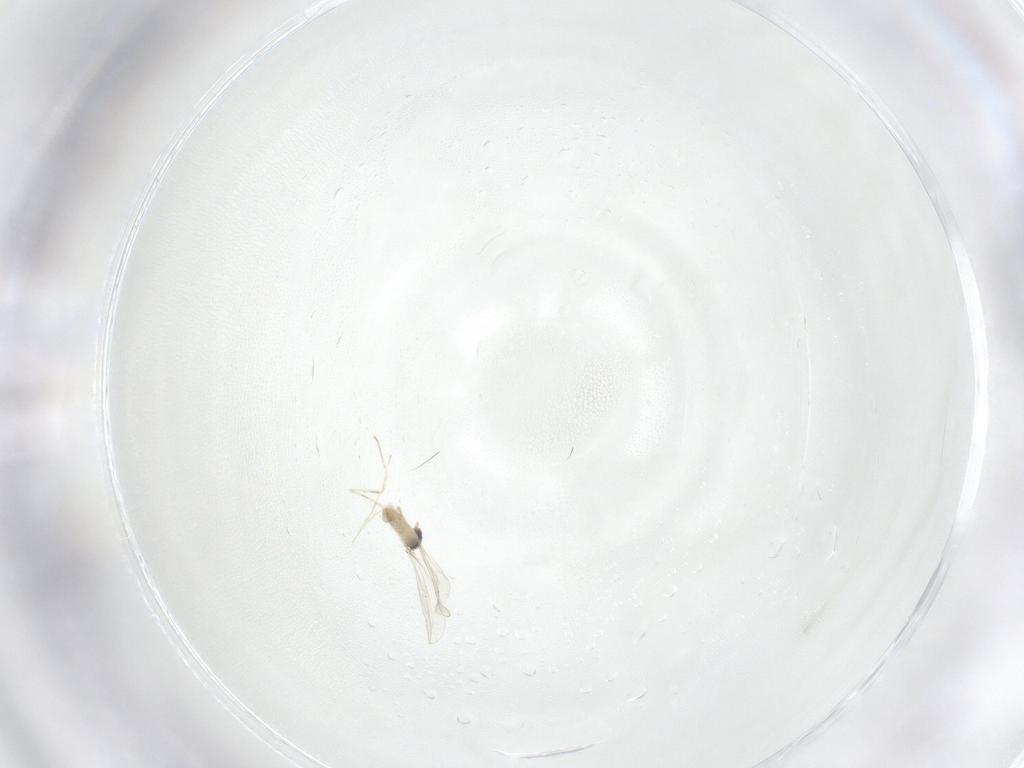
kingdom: Animalia
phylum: Arthropoda
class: Insecta
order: Diptera
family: Cecidomyiidae
